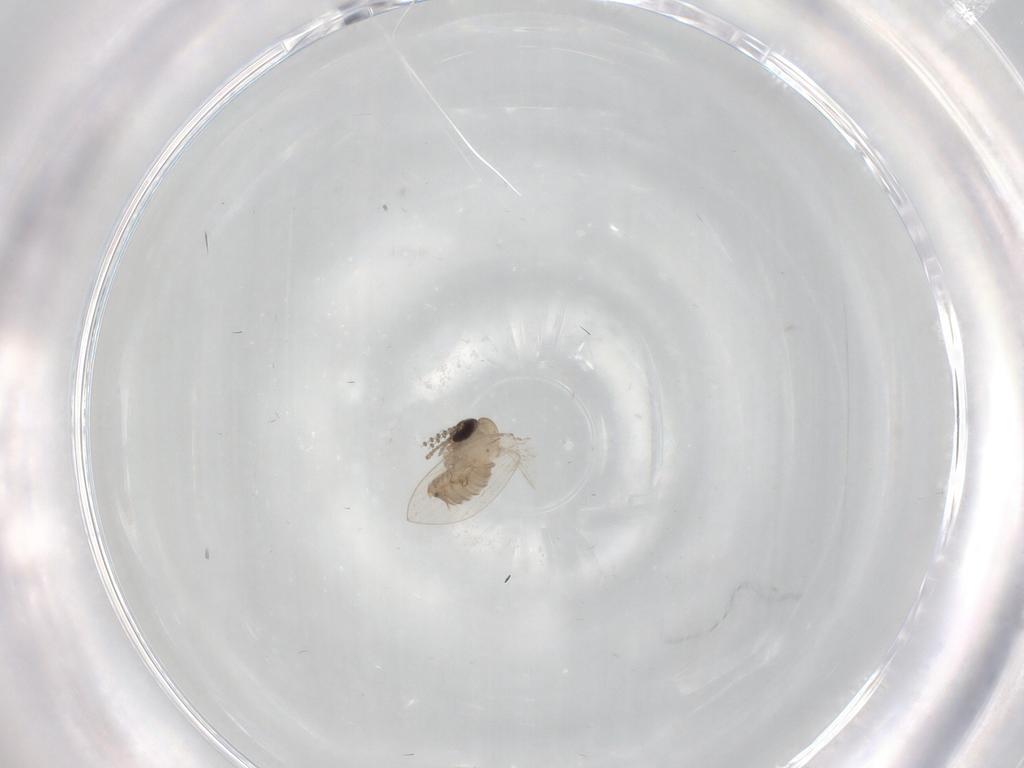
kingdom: Animalia
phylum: Arthropoda
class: Insecta
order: Diptera
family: Psychodidae
